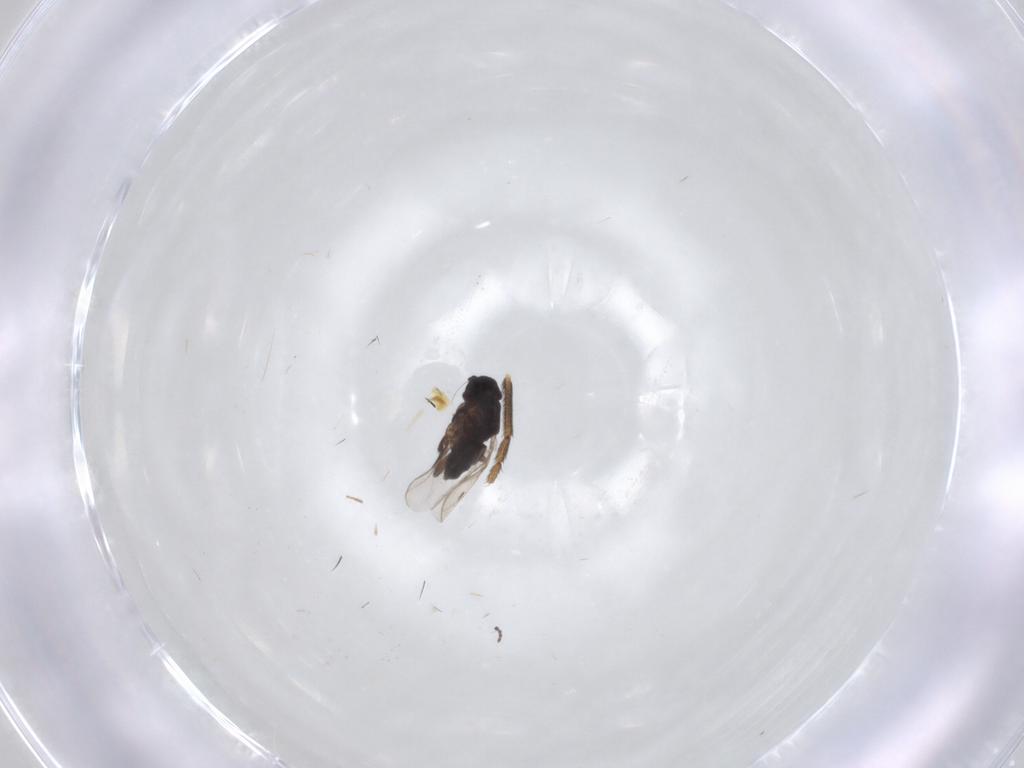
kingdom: Animalia
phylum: Arthropoda
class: Insecta
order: Diptera
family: Sphaeroceridae
